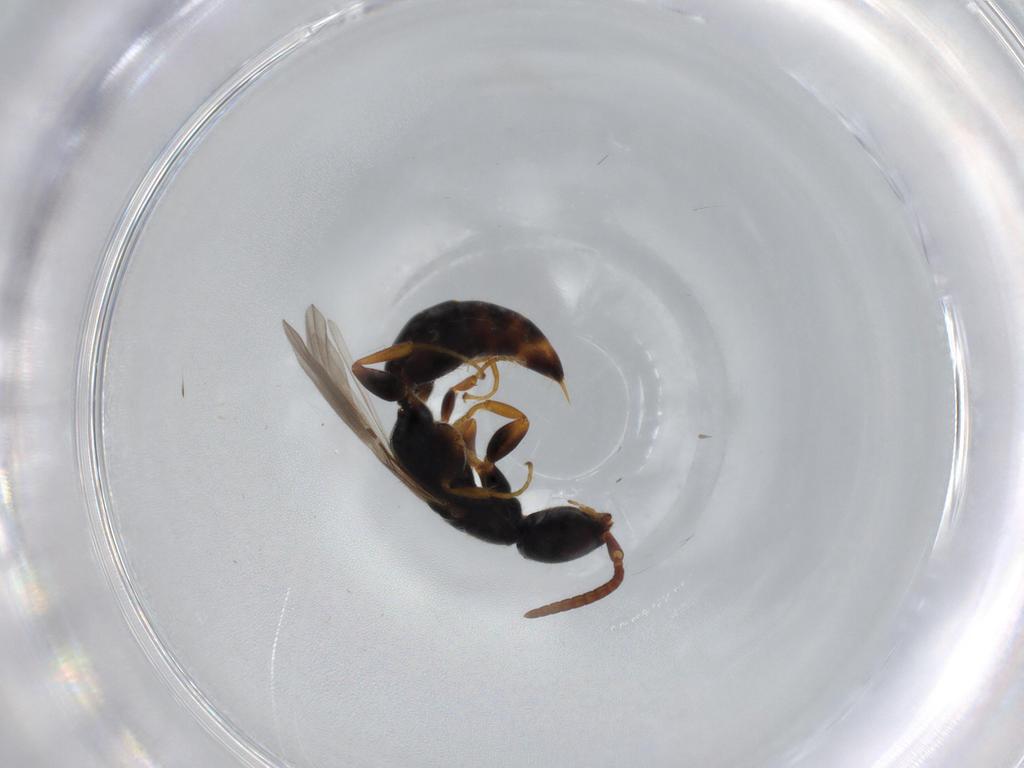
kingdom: Animalia
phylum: Arthropoda
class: Insecta
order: Hymenoptera
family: Bethylidae
